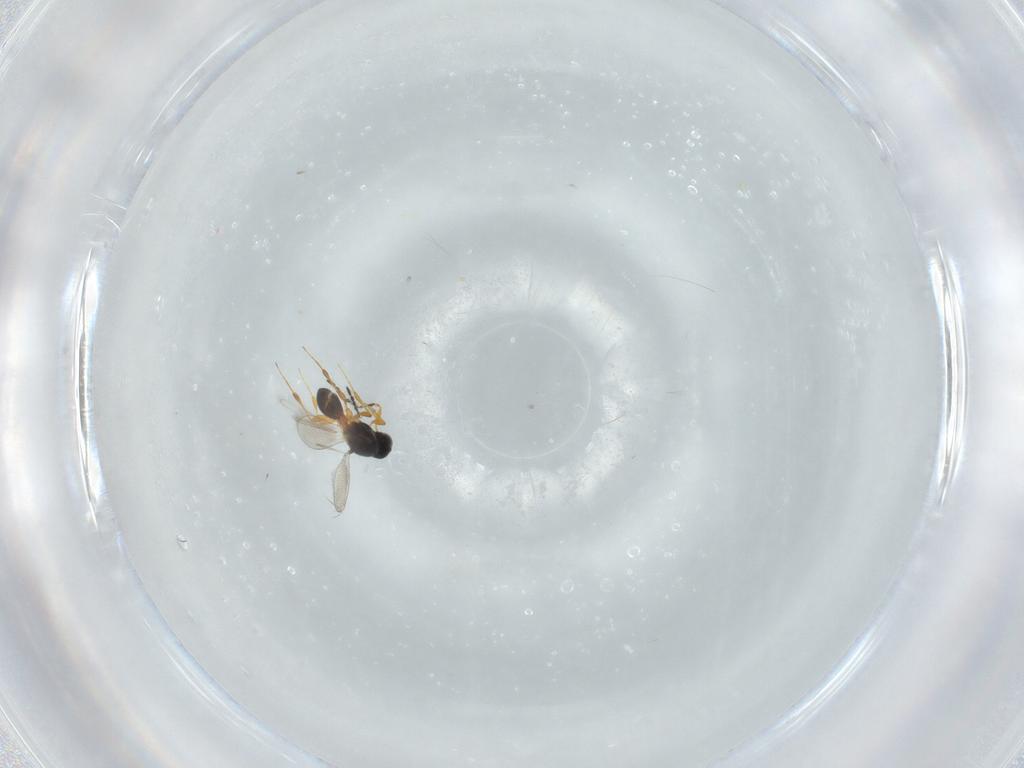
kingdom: Animalia
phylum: Arthropoda
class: Insecta
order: Hymenoptera
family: Platygastridae
